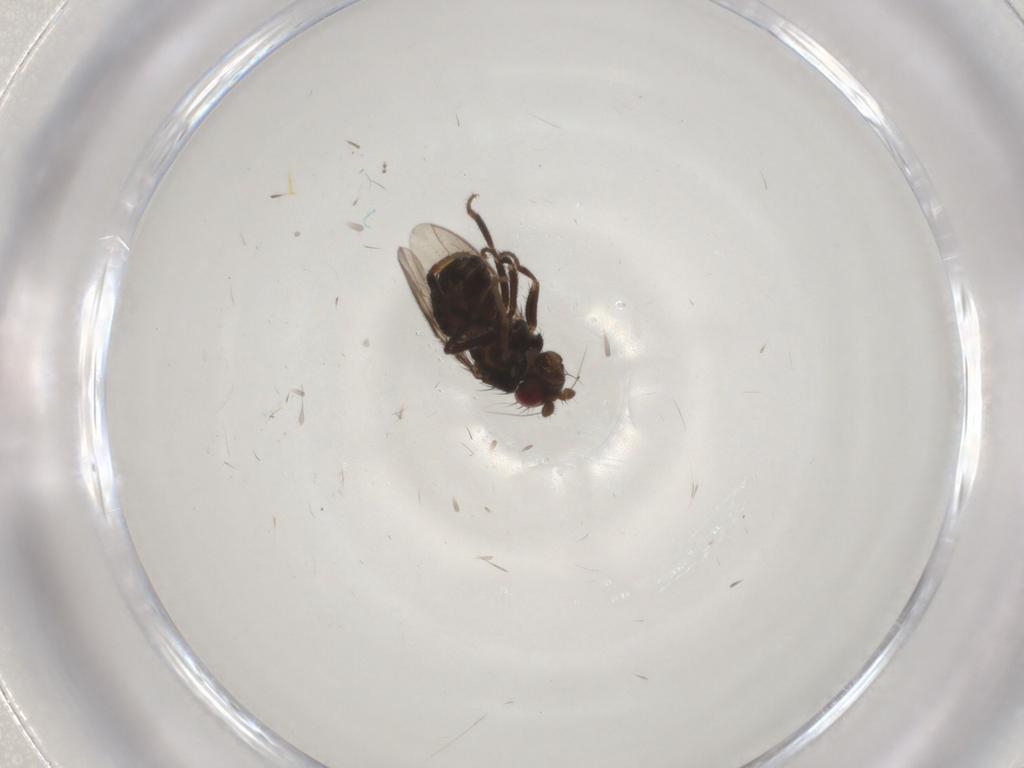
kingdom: Animalia
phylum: Arthropoda
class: Insecta
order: Diptera
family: Sphaeroceridae
